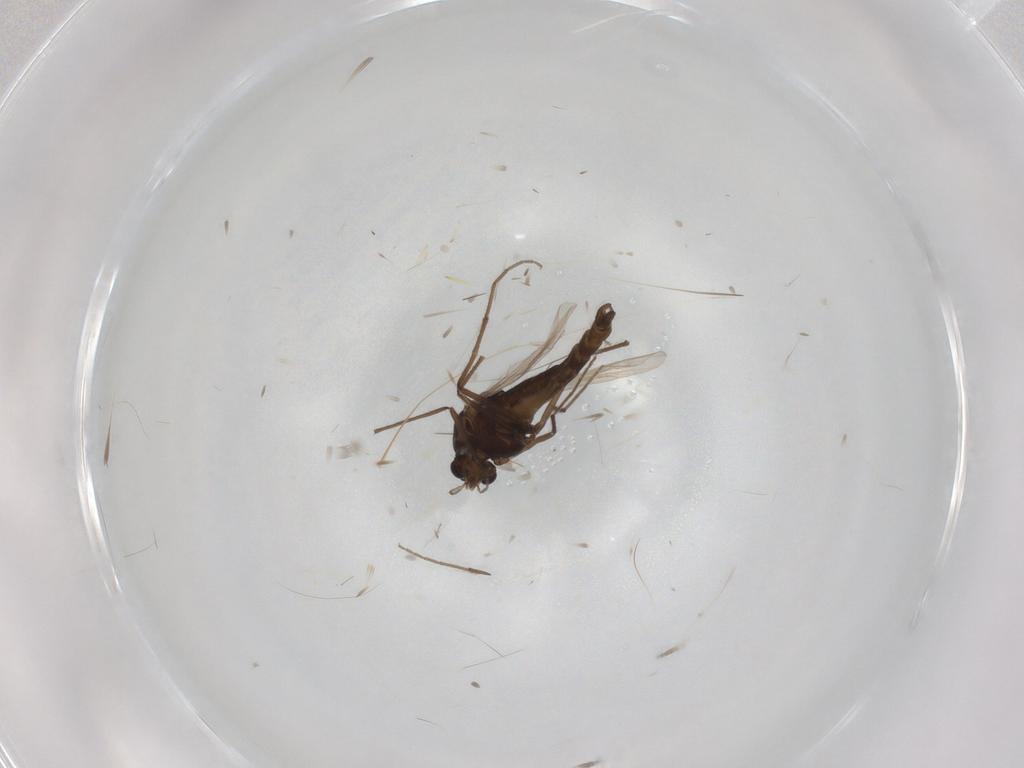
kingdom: Animalia
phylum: Arthropoda
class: Insecta
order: Diptera
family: Chironomidae
